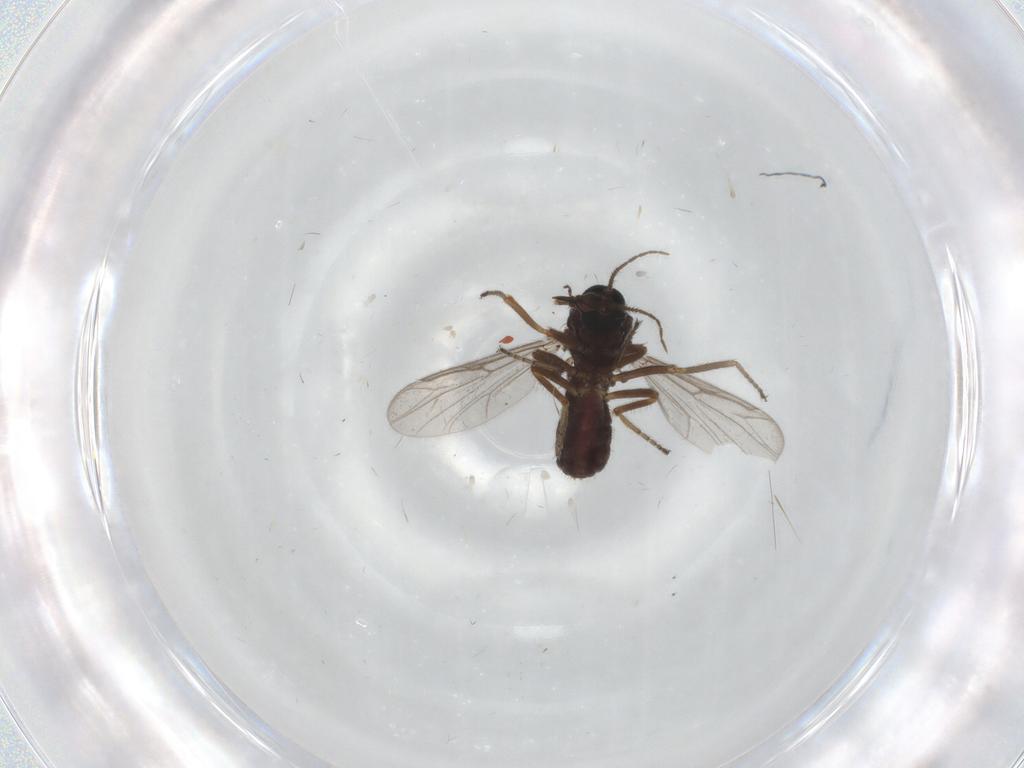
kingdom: Animalia
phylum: Arthropoda
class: Insecta
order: Diptera
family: Ceratopogonidae
